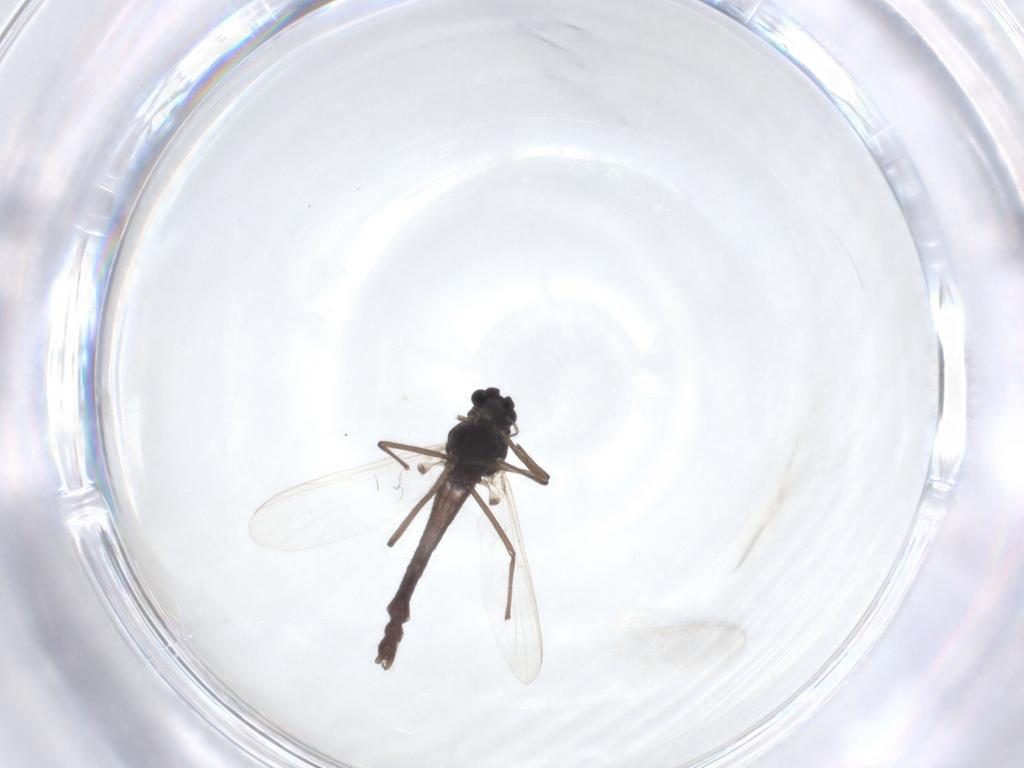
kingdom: Animalia
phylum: Arthropoda
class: Insecta
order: Diptera
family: Chironomidae
